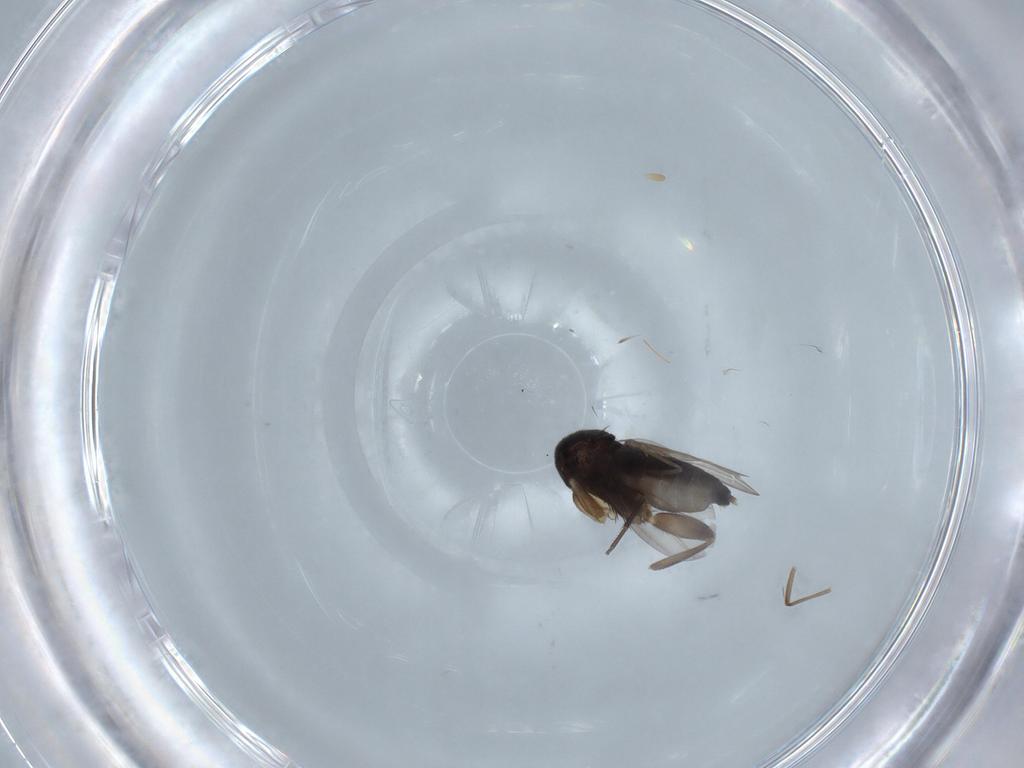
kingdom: Animalia
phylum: Arthropoda
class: Insecta
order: Diptera
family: Phoridae
